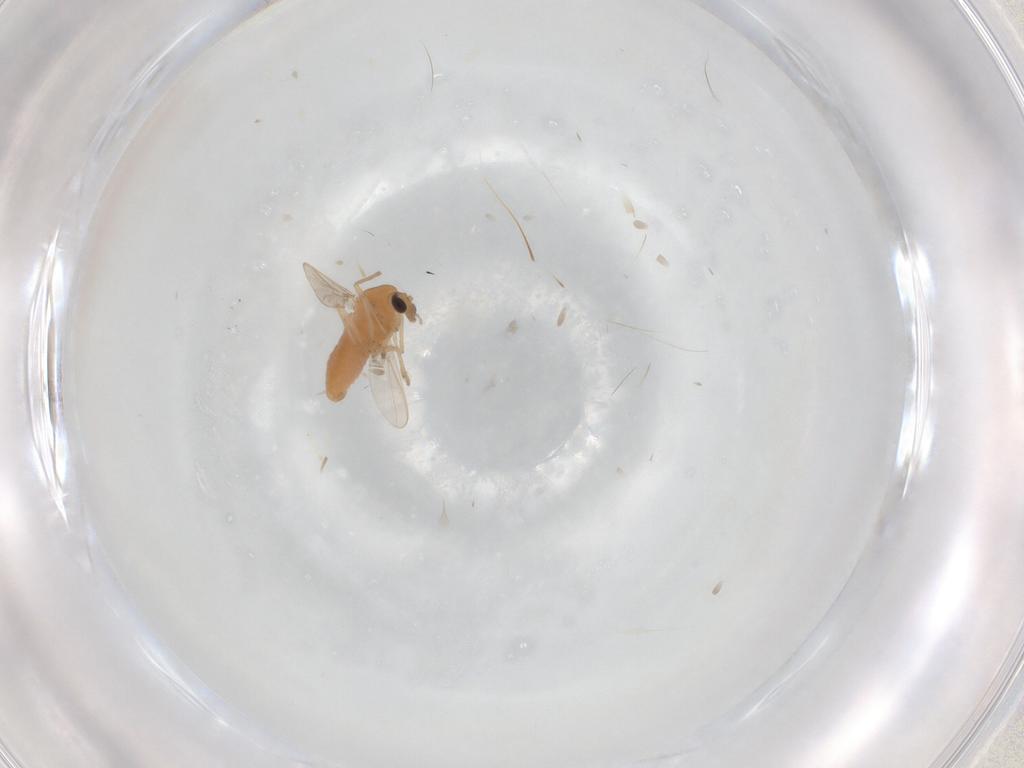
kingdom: Animalia
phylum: Arthropoda
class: Insecta
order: Diptera
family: Chironomidae
